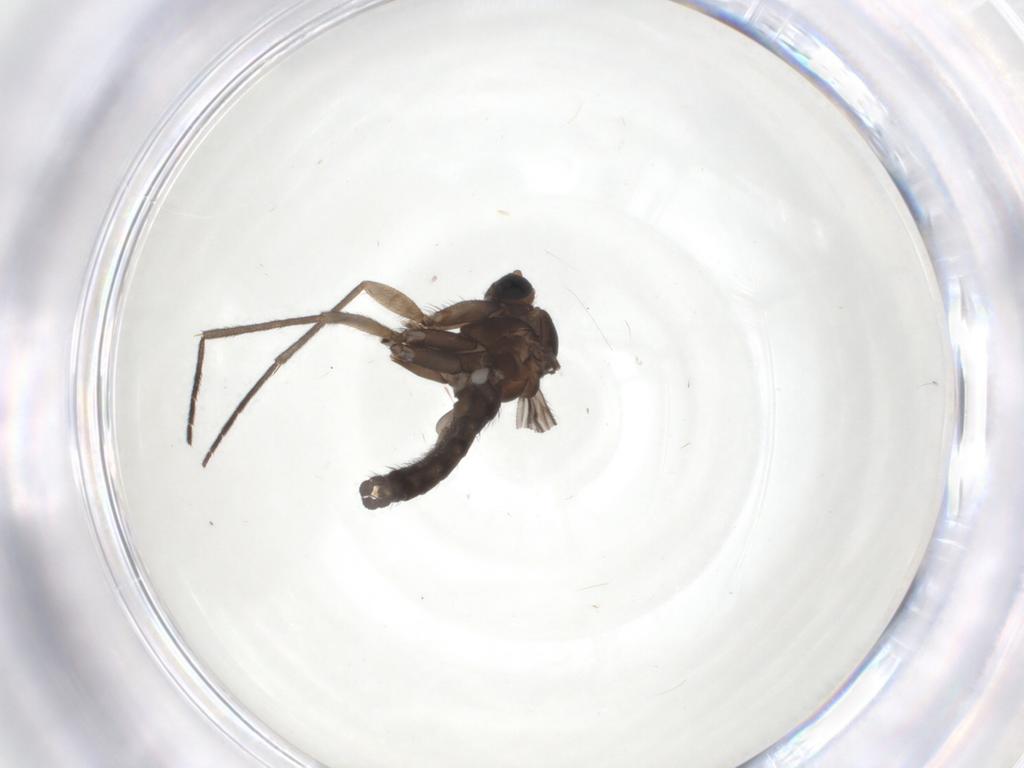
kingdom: Animalia
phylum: Arthropoda
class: Insecta
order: Diptera
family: Sciaridae
